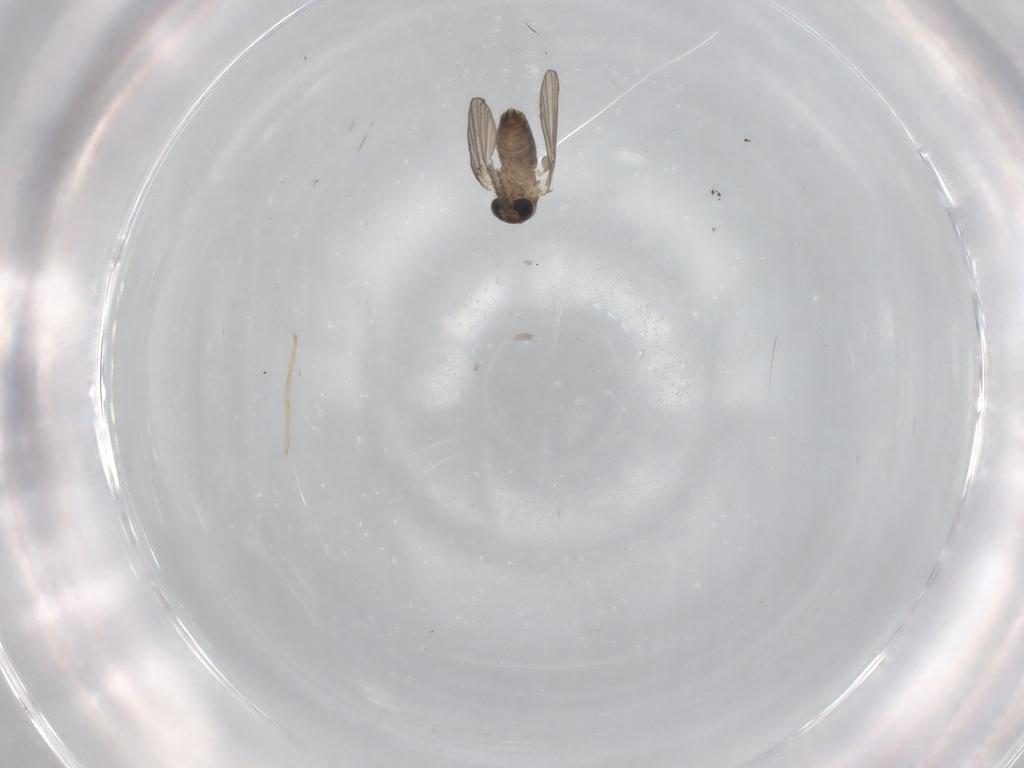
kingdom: Animalia
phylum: Arthropoda
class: Insecta
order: Diptera
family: Psychodidae
